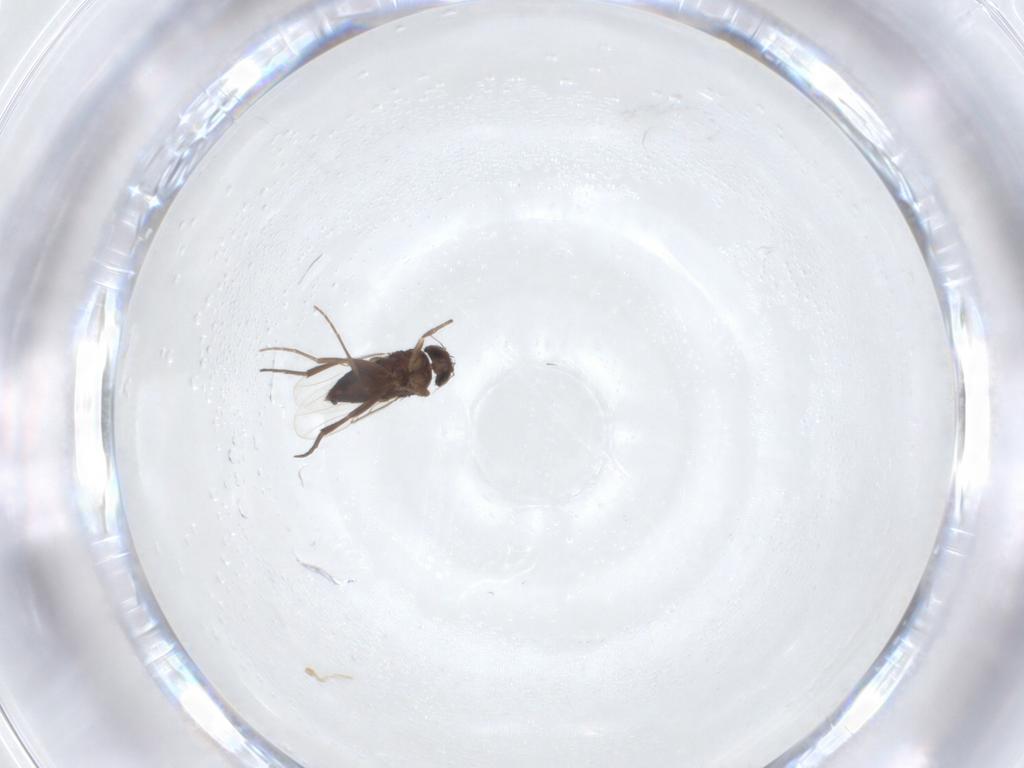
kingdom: Animalia
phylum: Arthropoda
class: Insecta
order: Diptera
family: Phoridae
